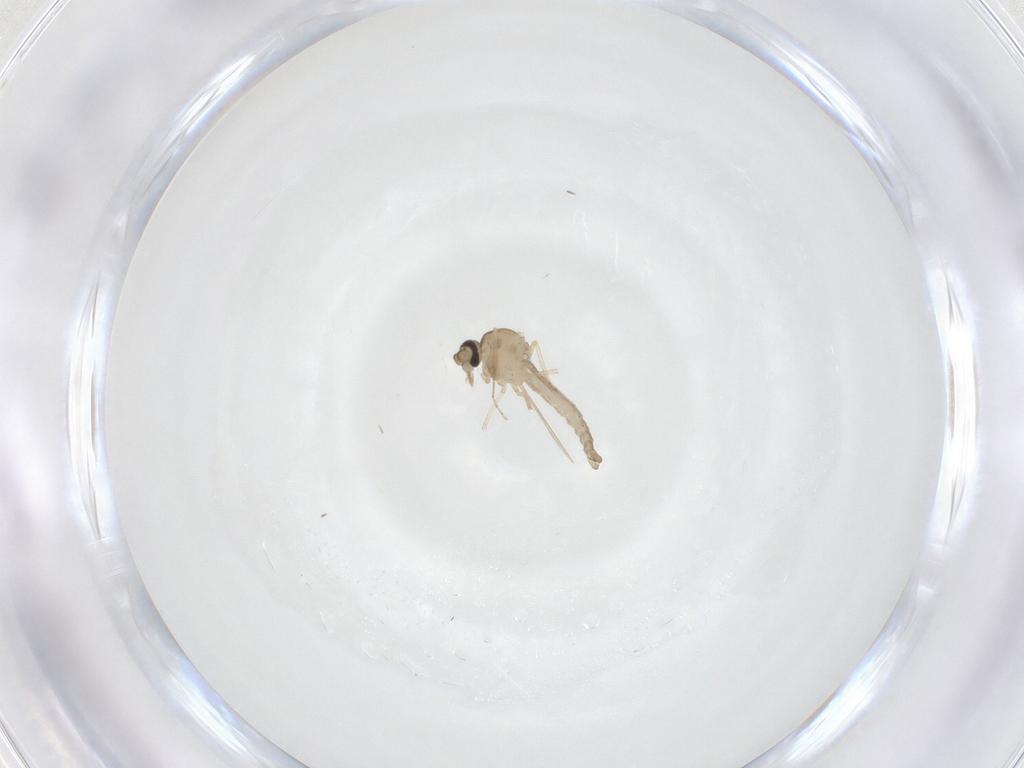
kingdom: Animalia
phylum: Arthropoda
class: Insecta
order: Diptera
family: Ceratopogonidae
